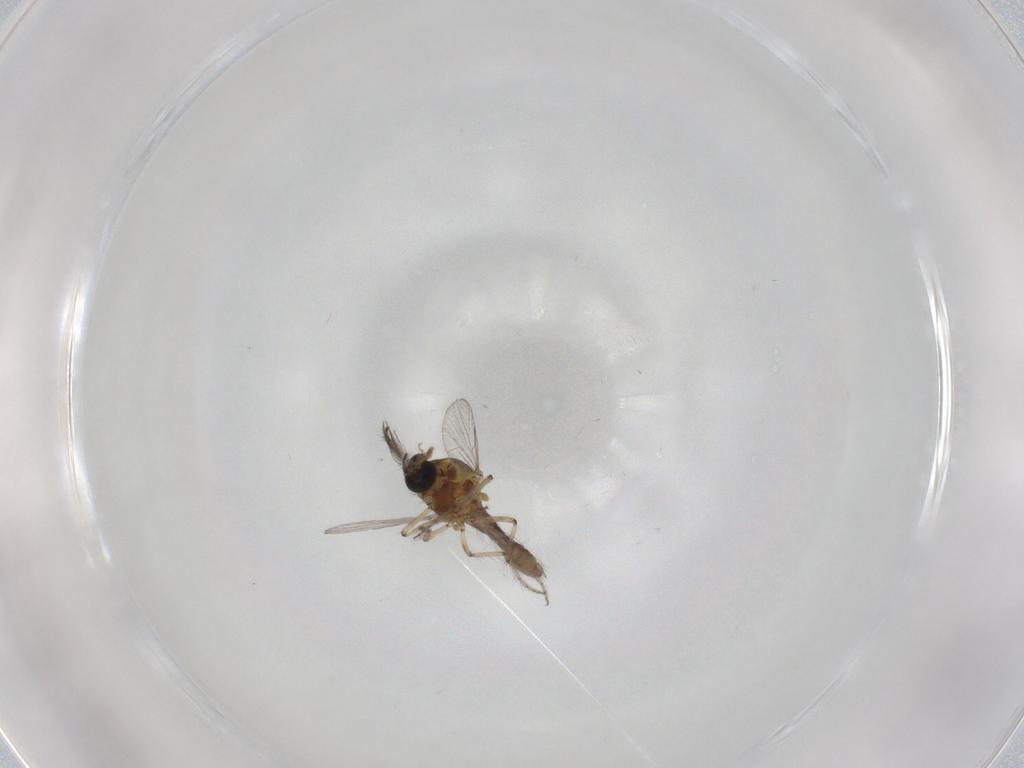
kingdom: Animalia
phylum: Arthropoda
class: Insecta
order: Diptera
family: Ceratopogonidae
